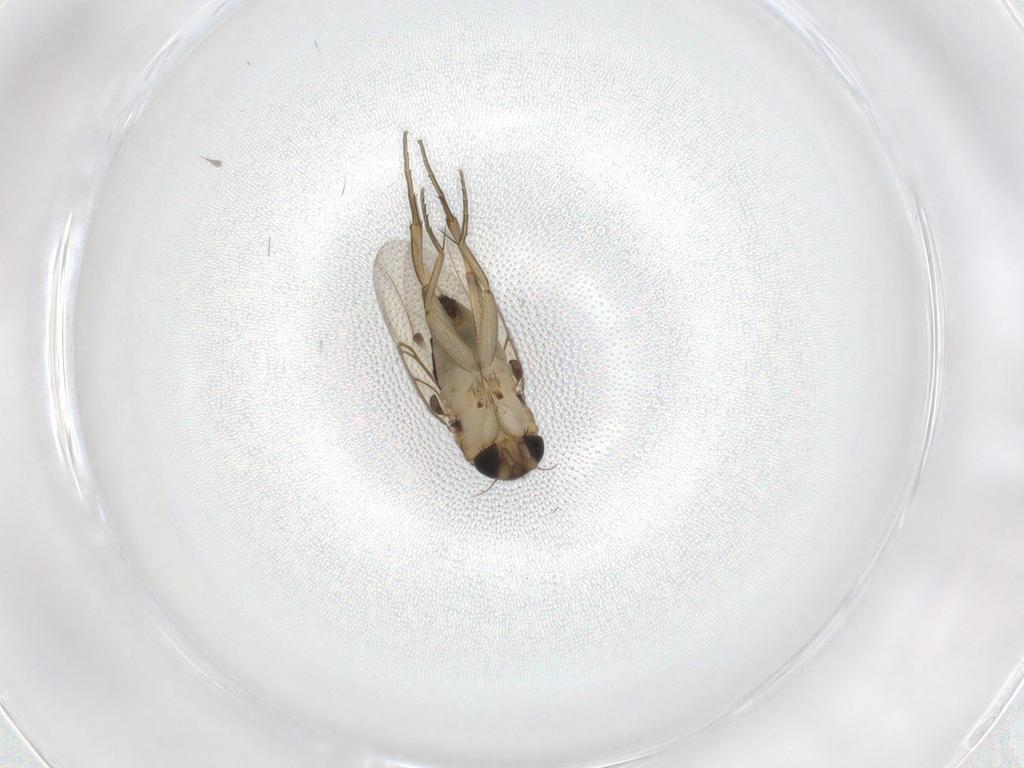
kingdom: Animalia
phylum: Arthropoda
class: Insecta
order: Diptera
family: Phoridae
